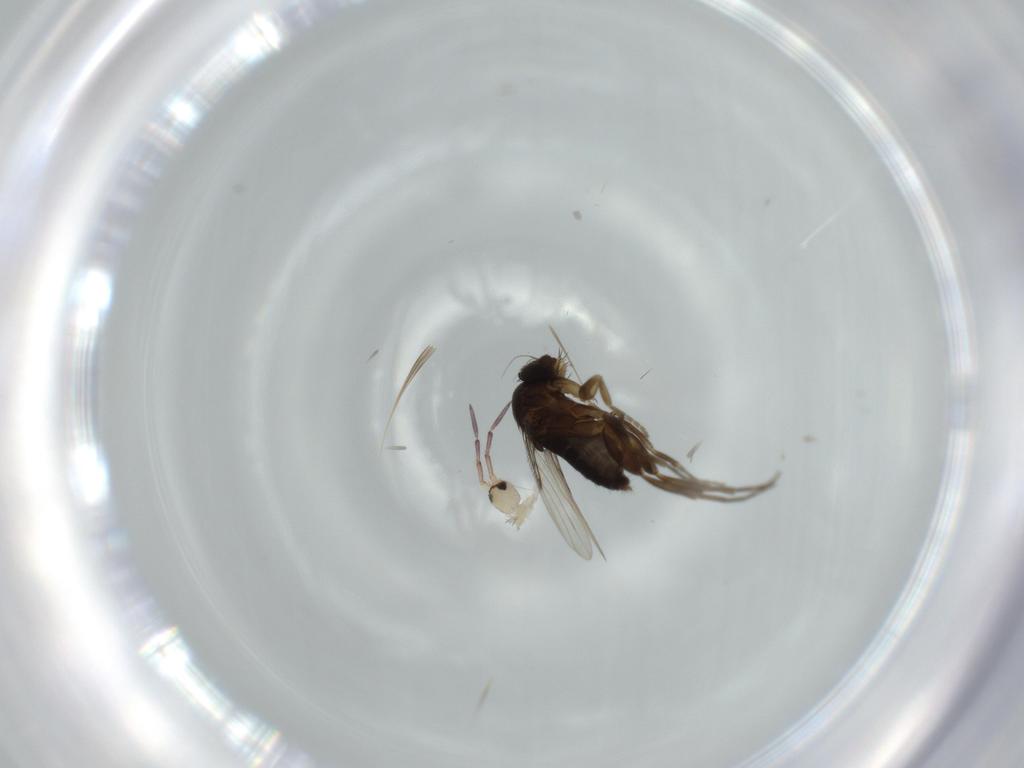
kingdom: Animalia
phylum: Arthropoda
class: Insecta
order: Diptera
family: Phoridae
